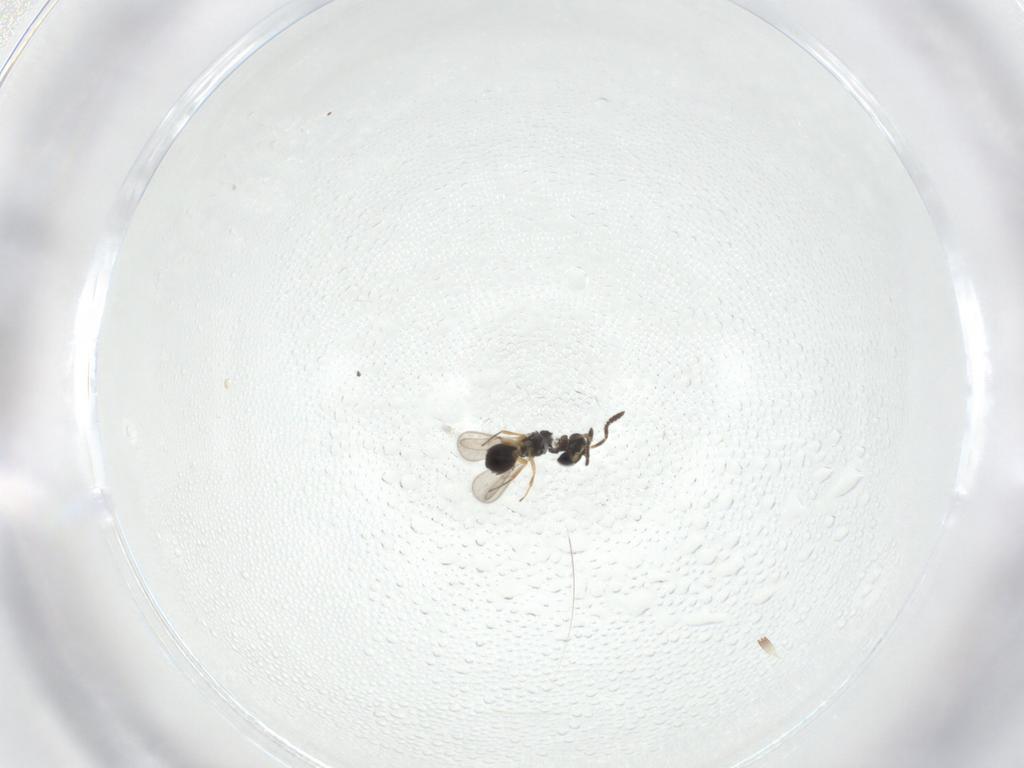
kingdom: Animalia
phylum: Arthropoda
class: Insecta
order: Hymenoptera
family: Scelionidae
